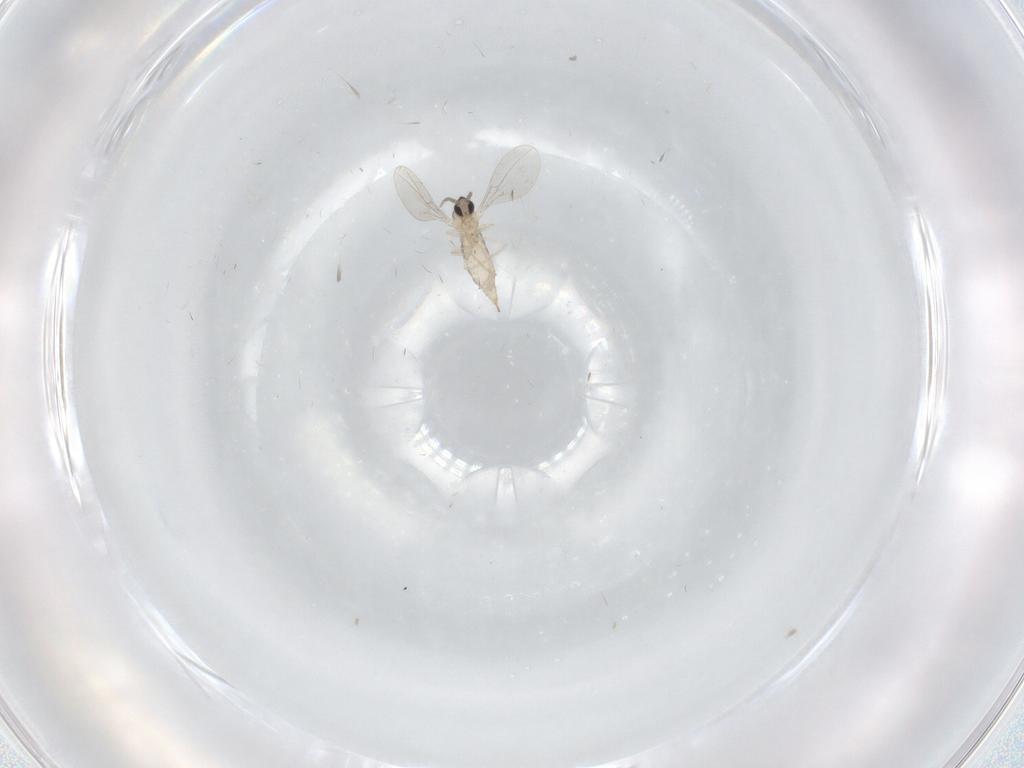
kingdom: Animalia
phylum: Arthropoda
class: Insecta
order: Diptera
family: Cecidomyiidae
